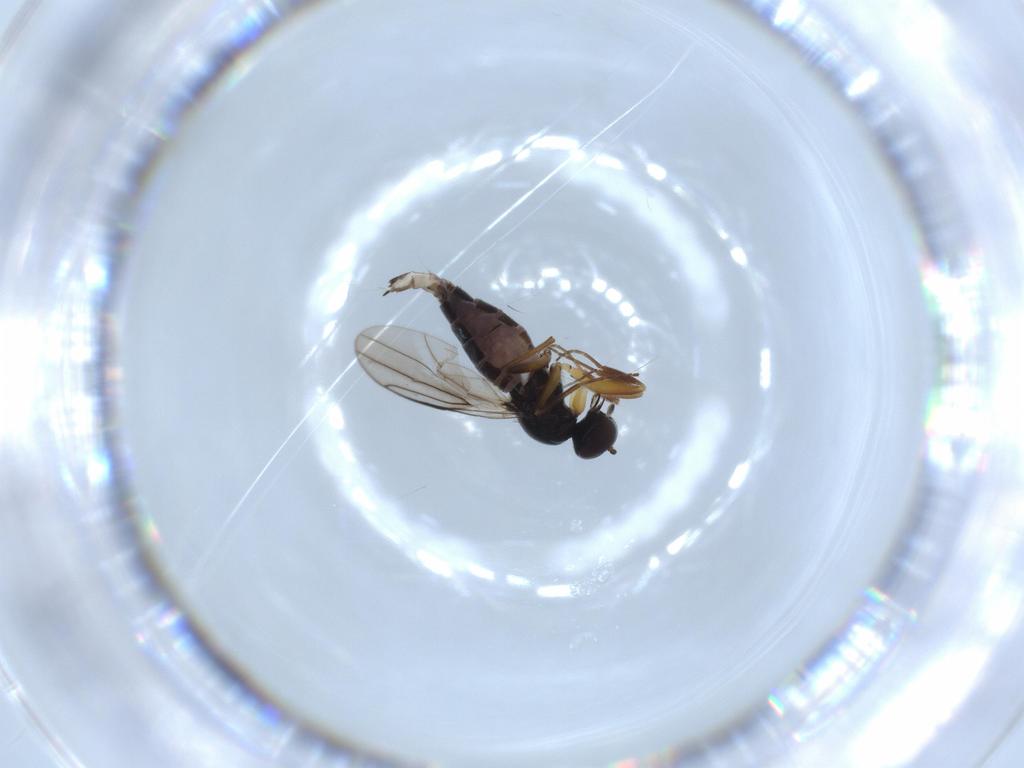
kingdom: Animalia
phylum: Arthropoda
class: Insecta
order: Diptera
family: Hybotidae
